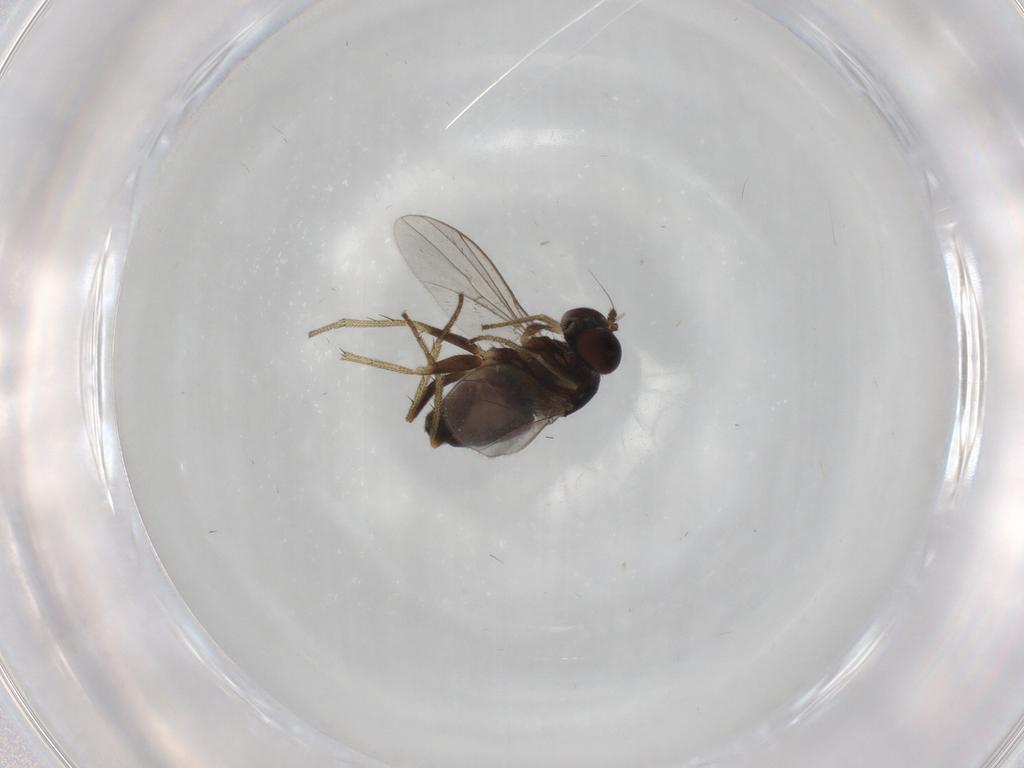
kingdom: Animalia
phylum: Arthropoda
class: Insecta
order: Diptera
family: Dolichopodidae
